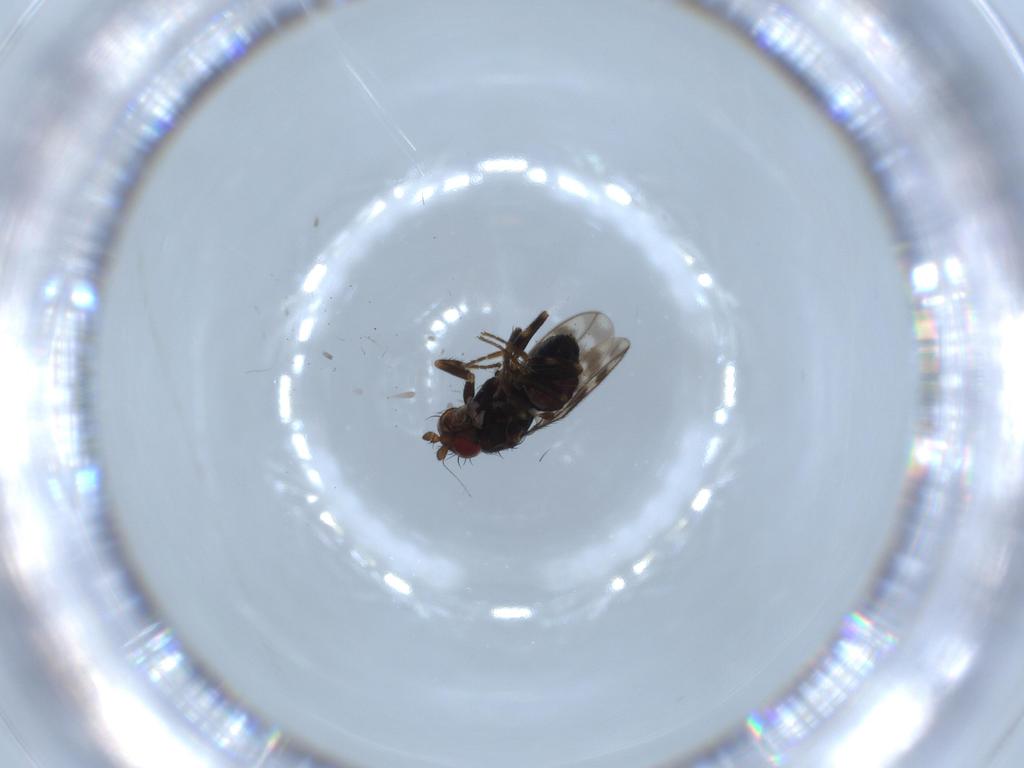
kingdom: Animalia
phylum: Arthropoda
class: Insecta
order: Diptera
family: Sphaeroceridae
